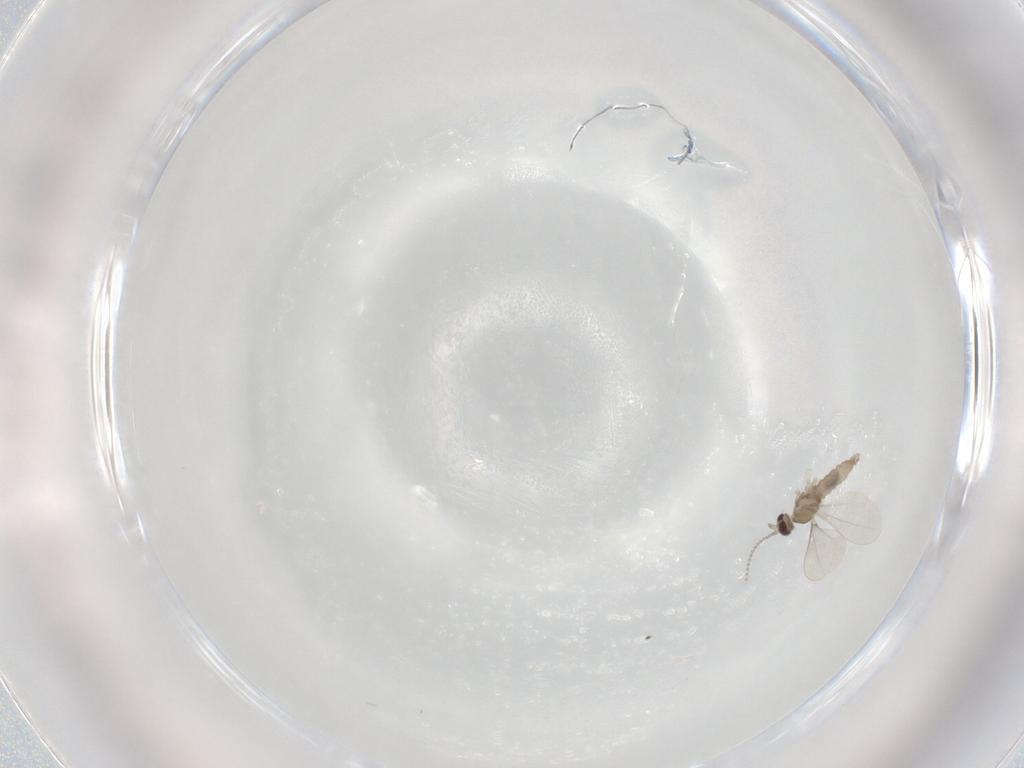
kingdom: Animalia
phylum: Arthropoda
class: Insecta
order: Diptera
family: Cecidomyiidae
